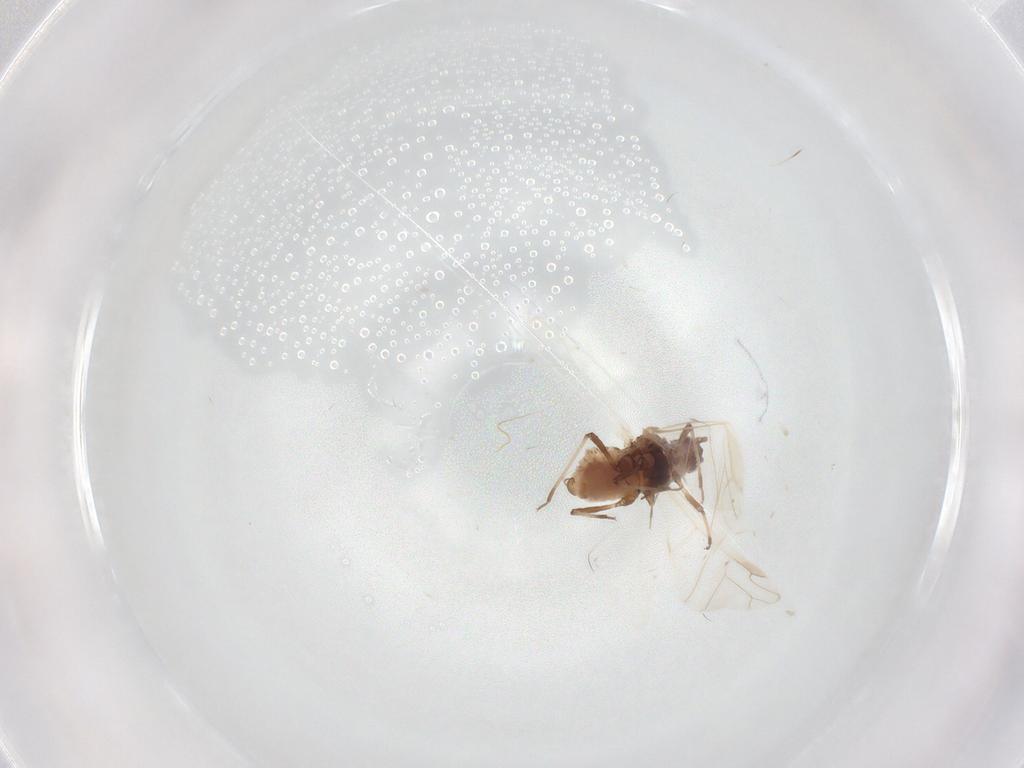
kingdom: Animalia
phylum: Arthropoda
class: Insecta
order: Hemiptera
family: Aphididae
